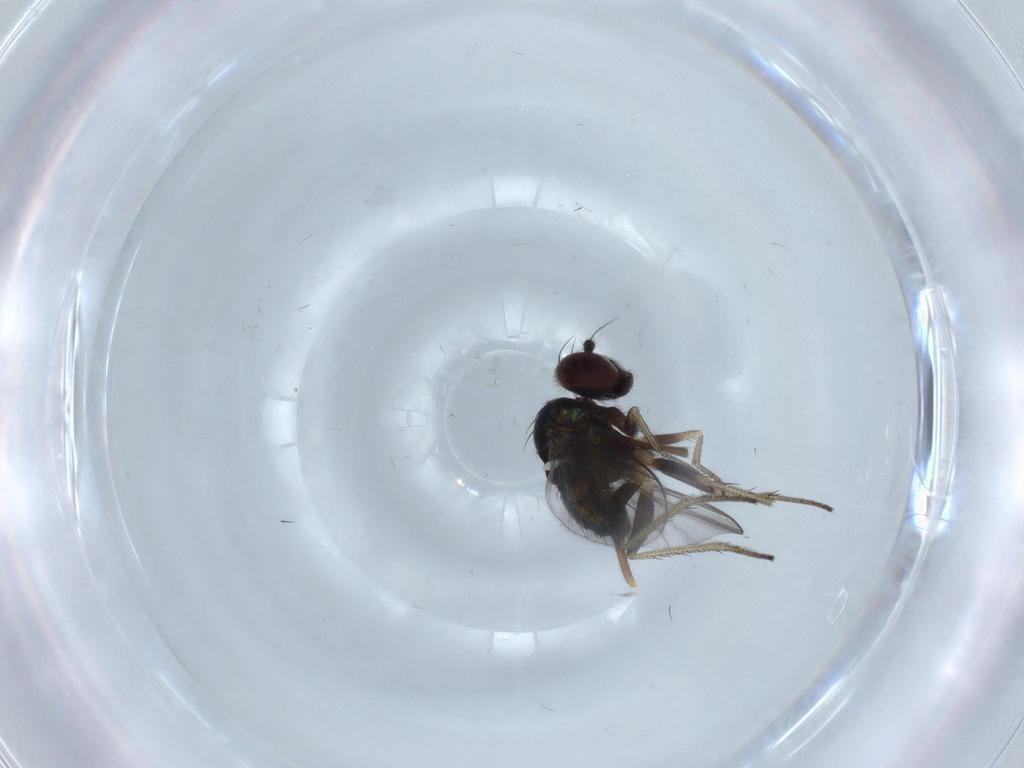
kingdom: Animalia
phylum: Arthropoda
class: Insecta
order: Diptera
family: Dolichopodidae
